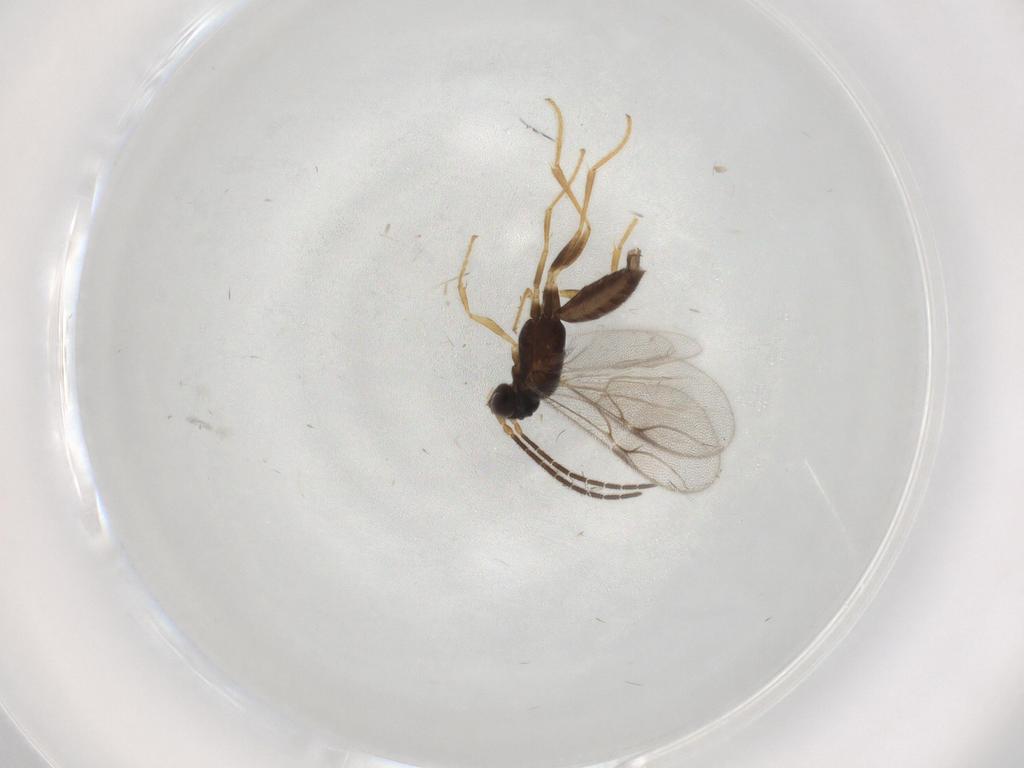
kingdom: Animalia
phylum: Arthropoda
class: Insecta
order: Hymenoptera
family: Dryinidae
